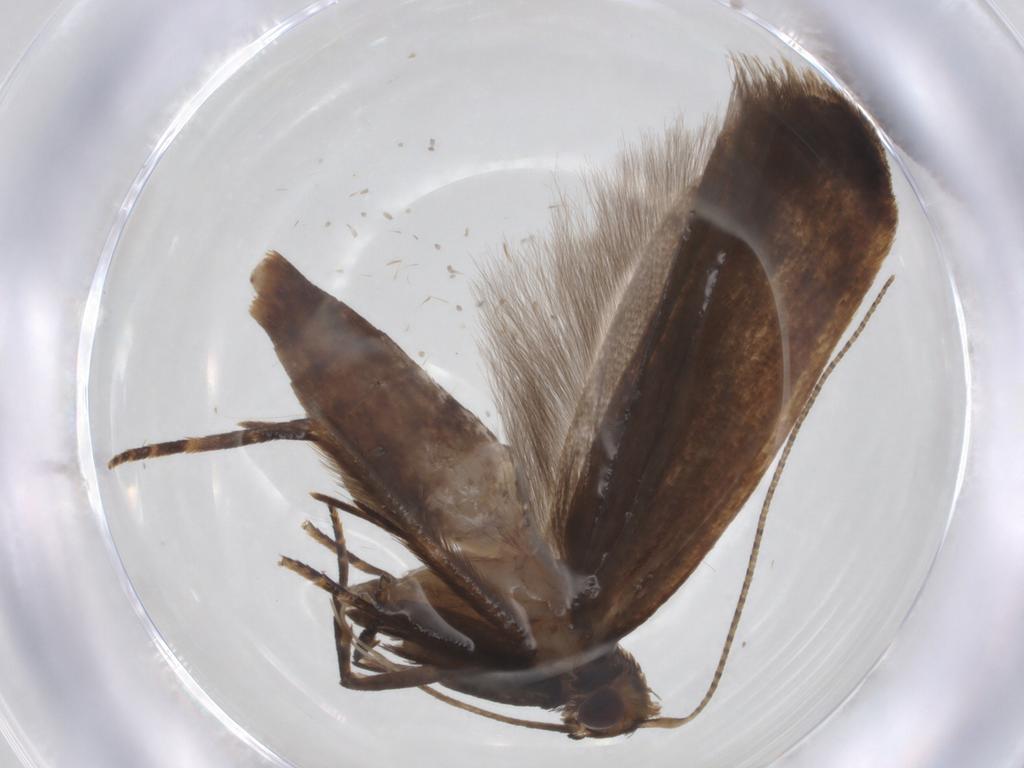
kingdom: Animalia
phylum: Arthropoda
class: Insecta
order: Lepidoptera
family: Gelechiidae
